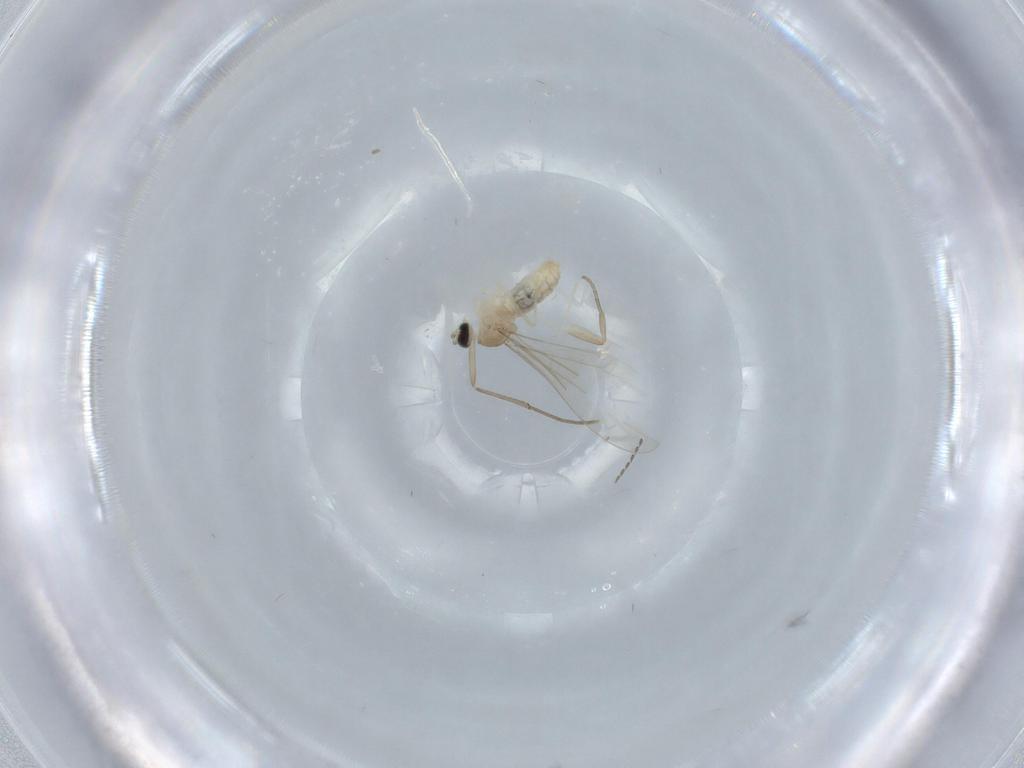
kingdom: Animalia
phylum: Arthropoda
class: Insecta
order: Diptera
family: Cecidomyiidae
